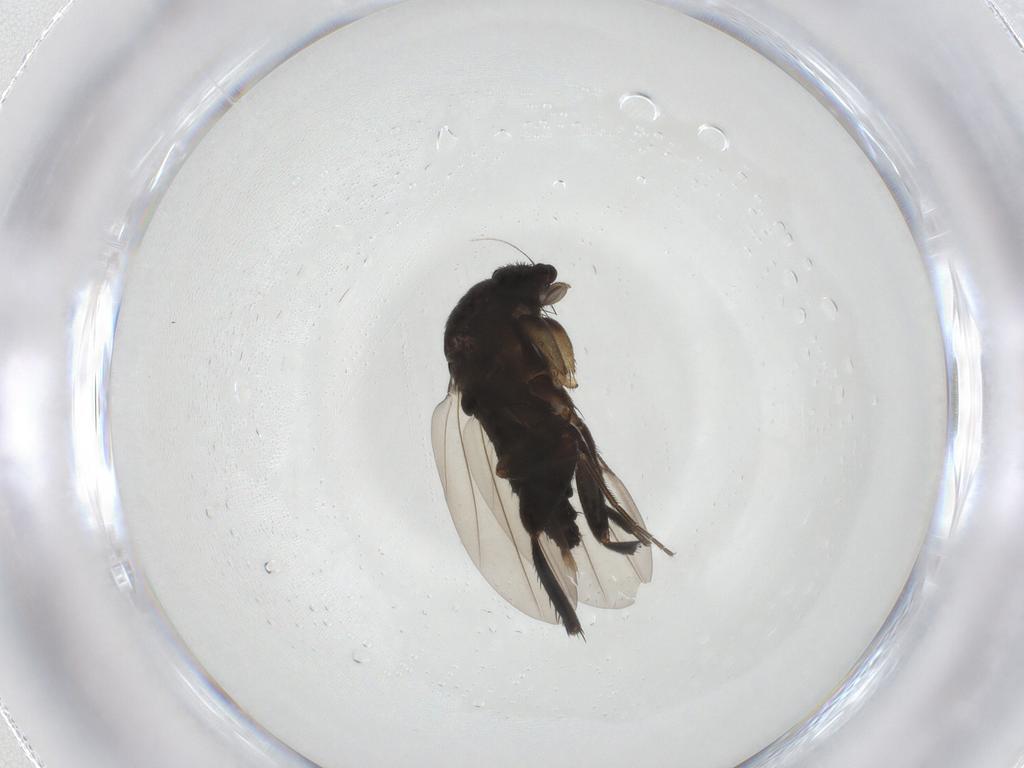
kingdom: Animalia
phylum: Arthropoda
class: Insecta
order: Diptera
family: Phoridae
